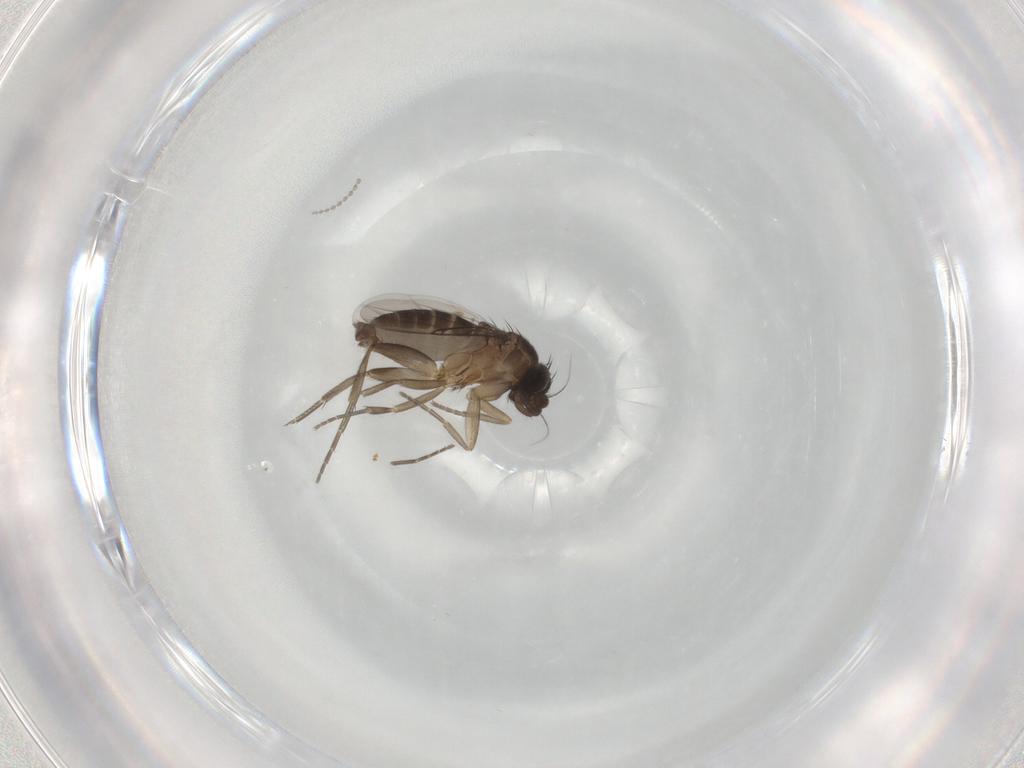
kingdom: Animalia
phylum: Arthropoda
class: Insecta
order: Diptera
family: Phoridae
